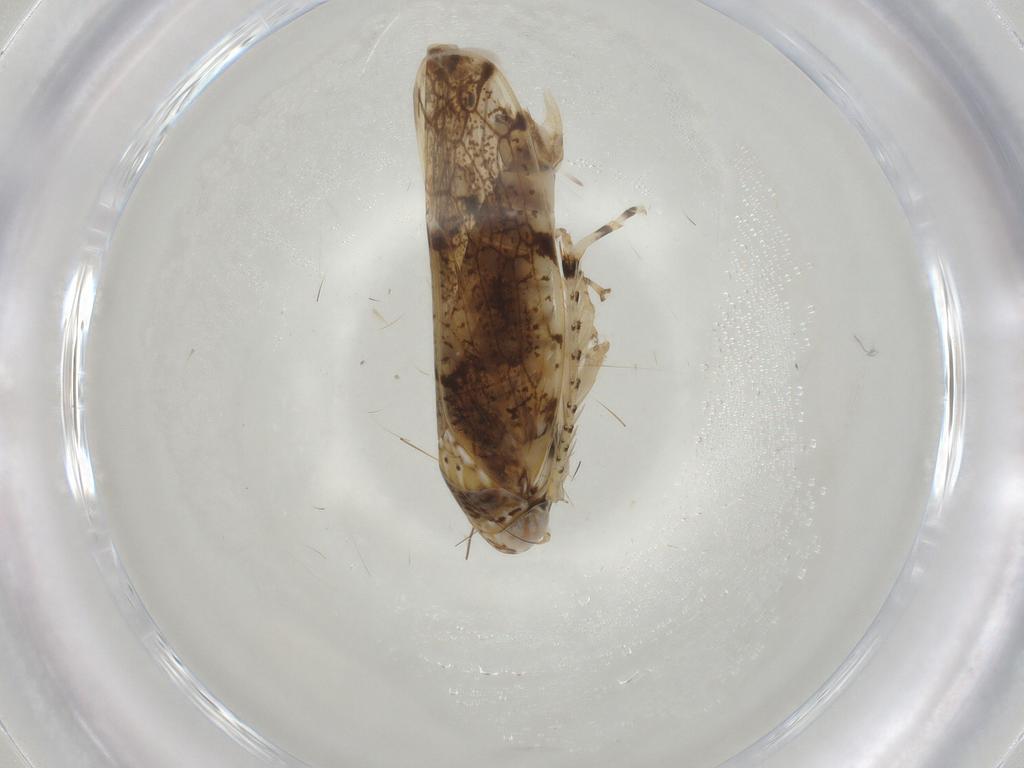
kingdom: Animalia
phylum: Arthropoda
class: Insecta
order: Hemiptera
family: Cicadellidae
